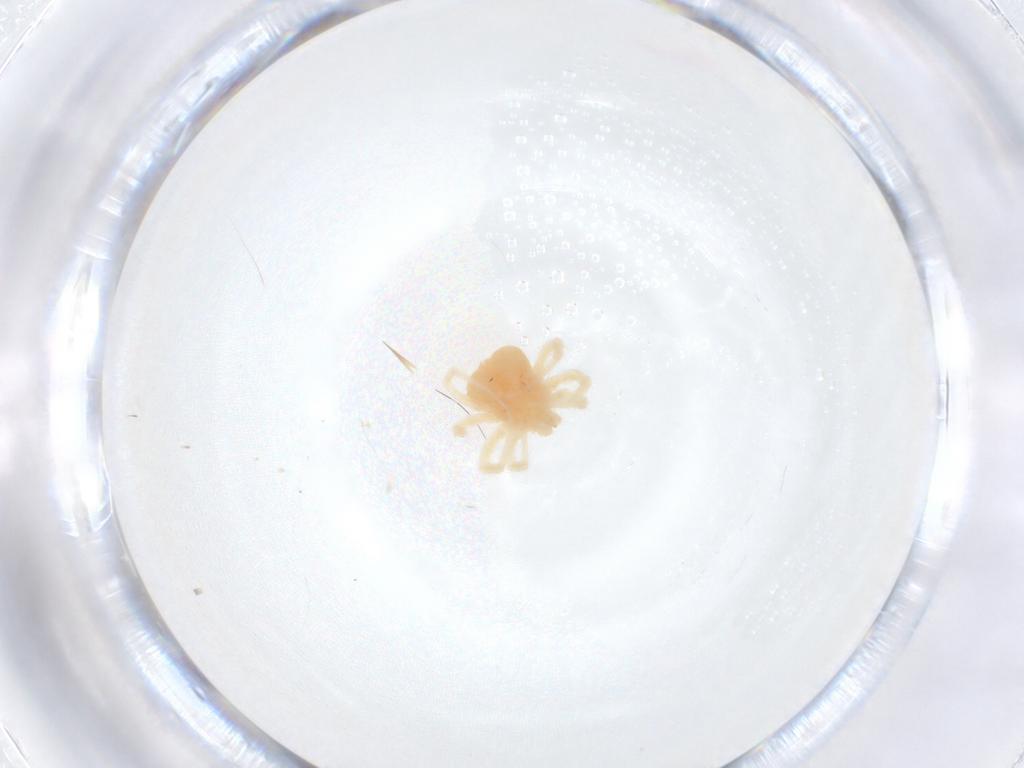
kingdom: Animalia
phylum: Arthropoda
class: Arachnida
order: Trombidiformes
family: Anystidae
